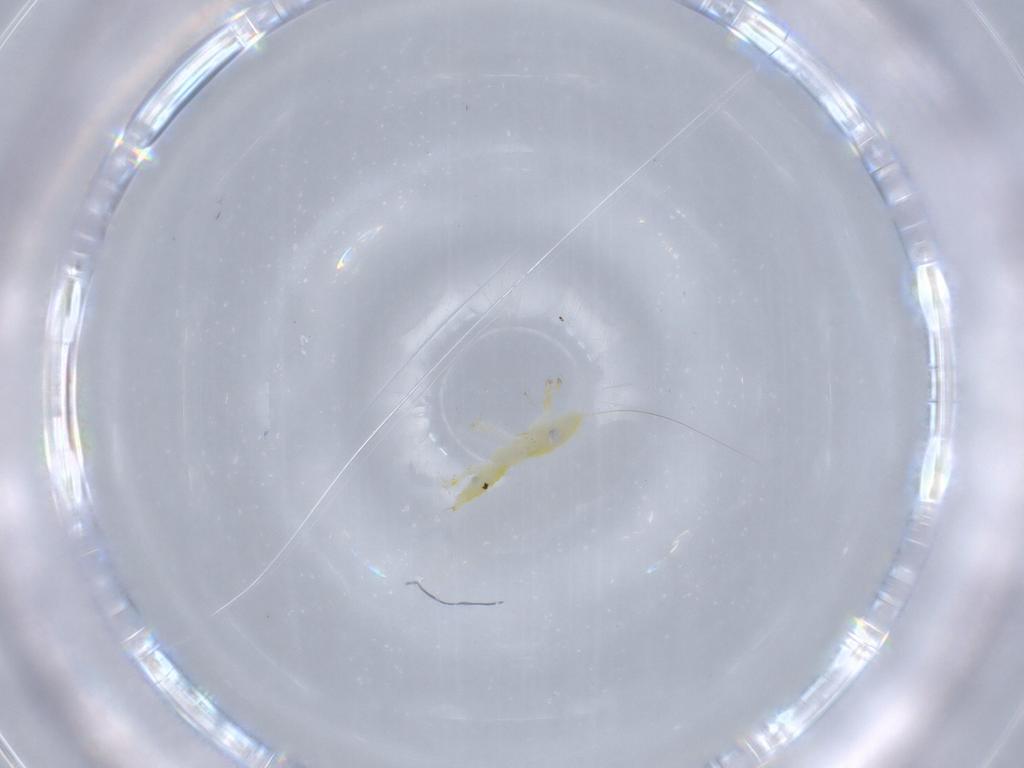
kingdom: Animalia
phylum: Arthropoda
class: Insecta
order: Hemiptera
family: Cicadellidae
